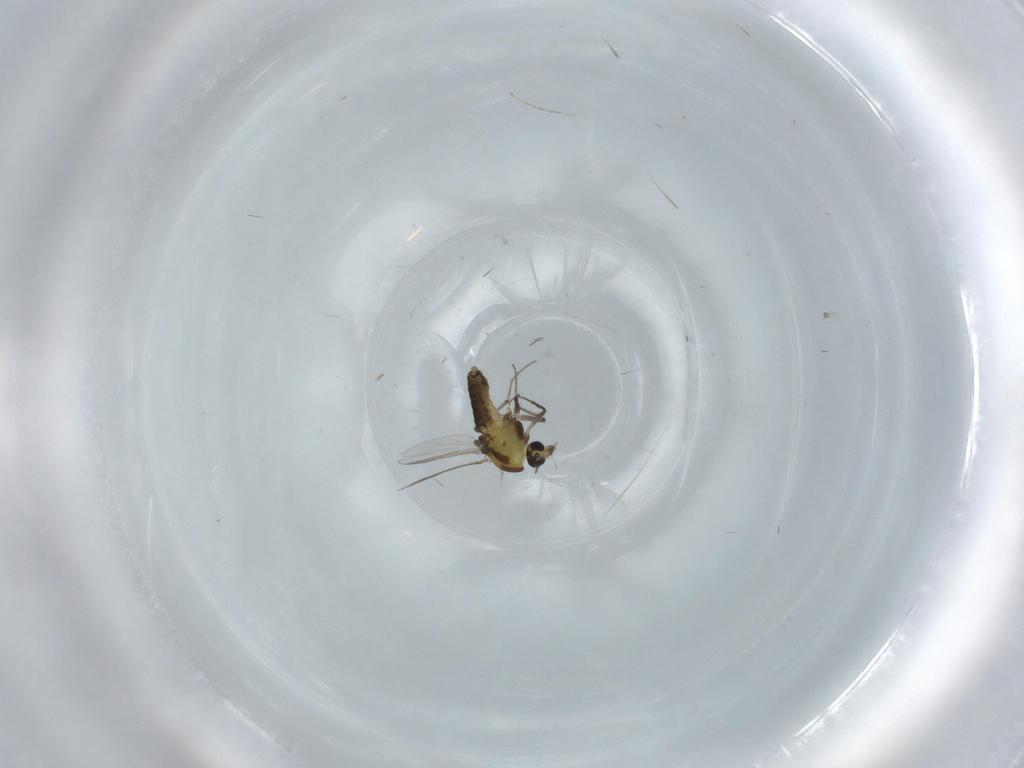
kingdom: Animalia
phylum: Arthropoda
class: Insecta
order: Diptera
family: Chironomidae
